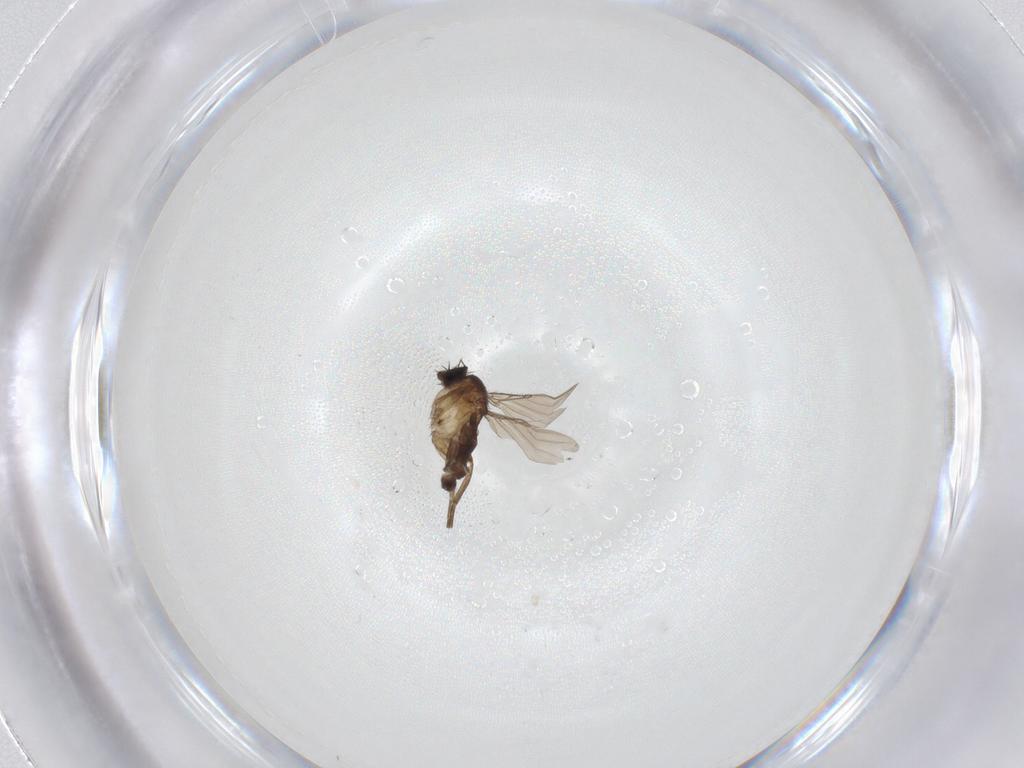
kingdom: Animalia
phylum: Arthropoda
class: Insecta
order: Diptera
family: Phoridae
